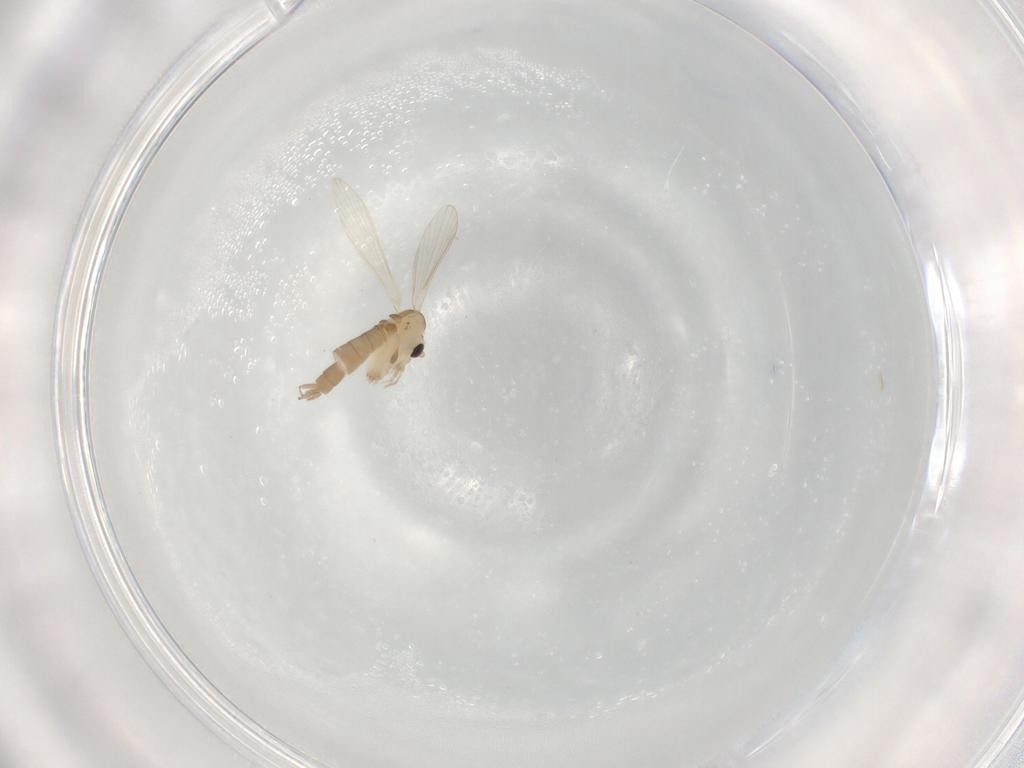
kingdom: Animalia
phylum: Arthropoda
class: Insecta
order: Diptera
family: Psychodidae
